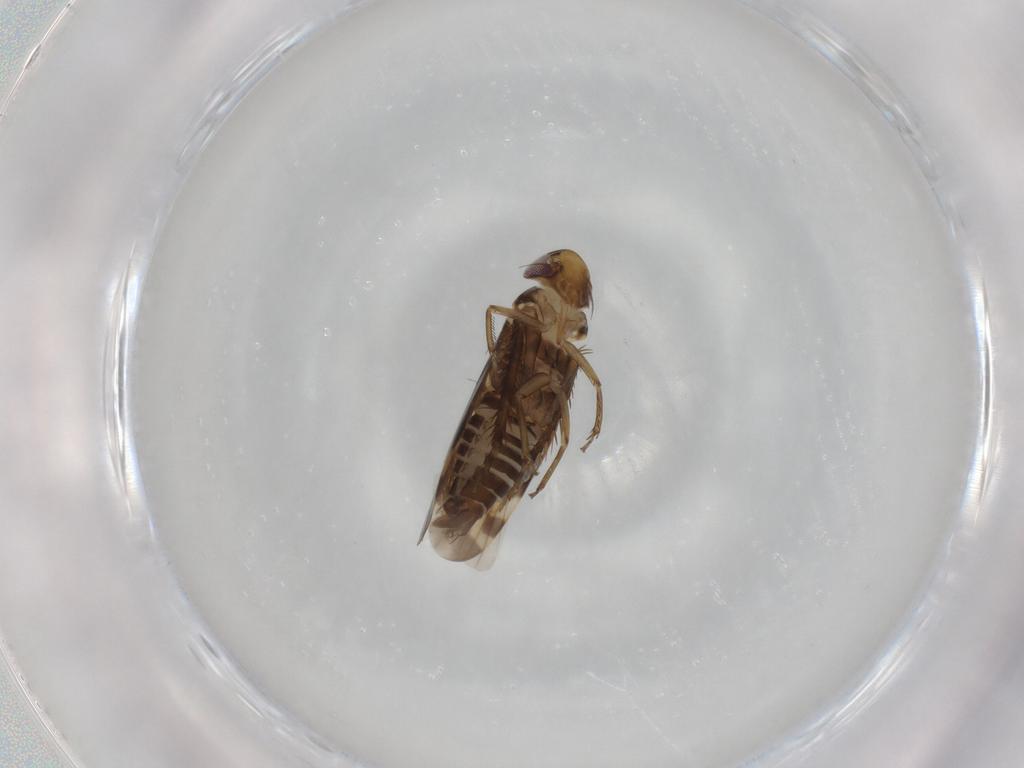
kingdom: Animalia
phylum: Arthropoda
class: Insecta
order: Hemiptera
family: Cicadellidae
